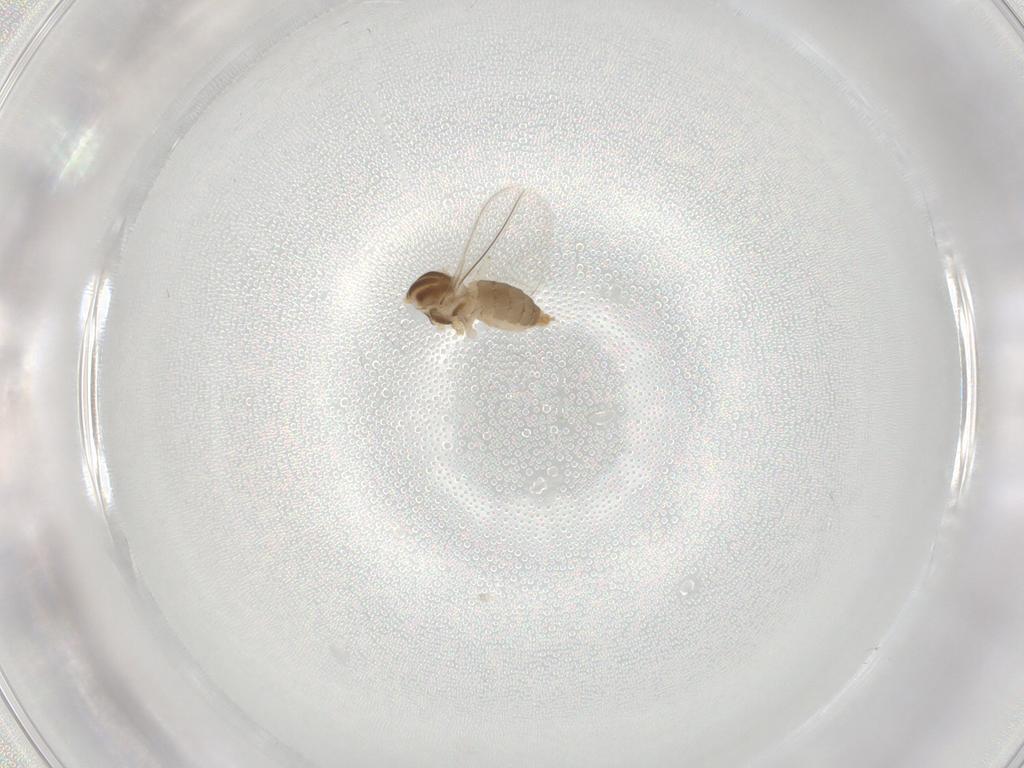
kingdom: Animalia
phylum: Arthropoda
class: Insecta
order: Diptera
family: Cecidomyiidae
